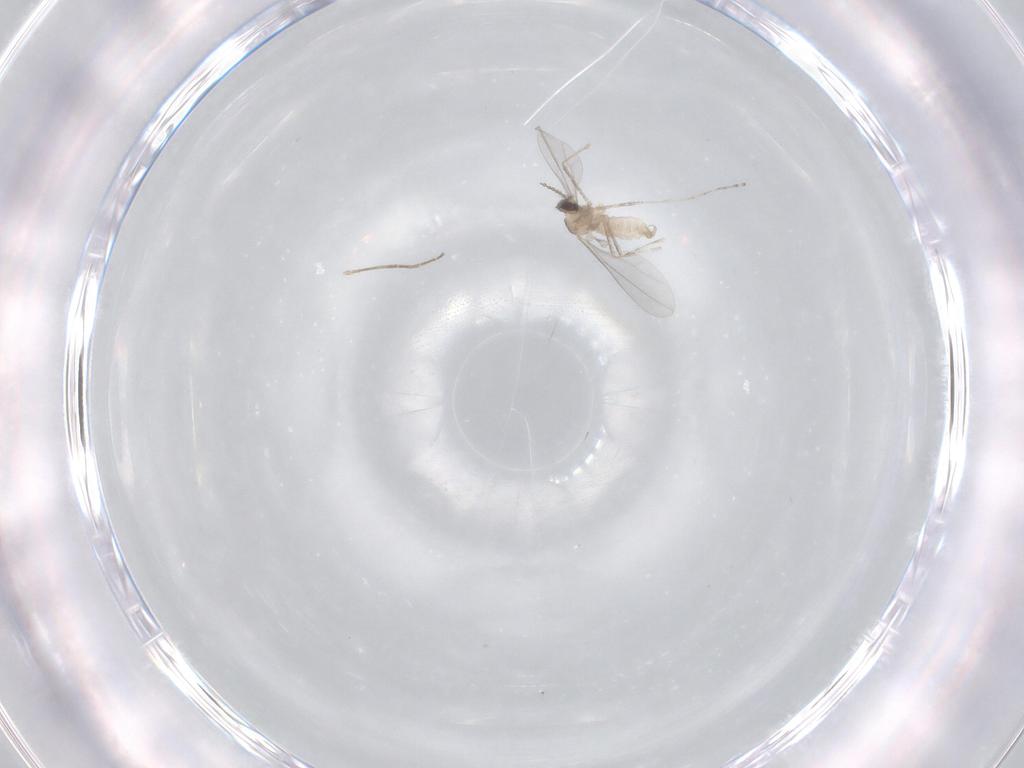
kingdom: Animalia
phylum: Arthropoda
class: Insecta
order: Diptera
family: Cecidomyiidae
